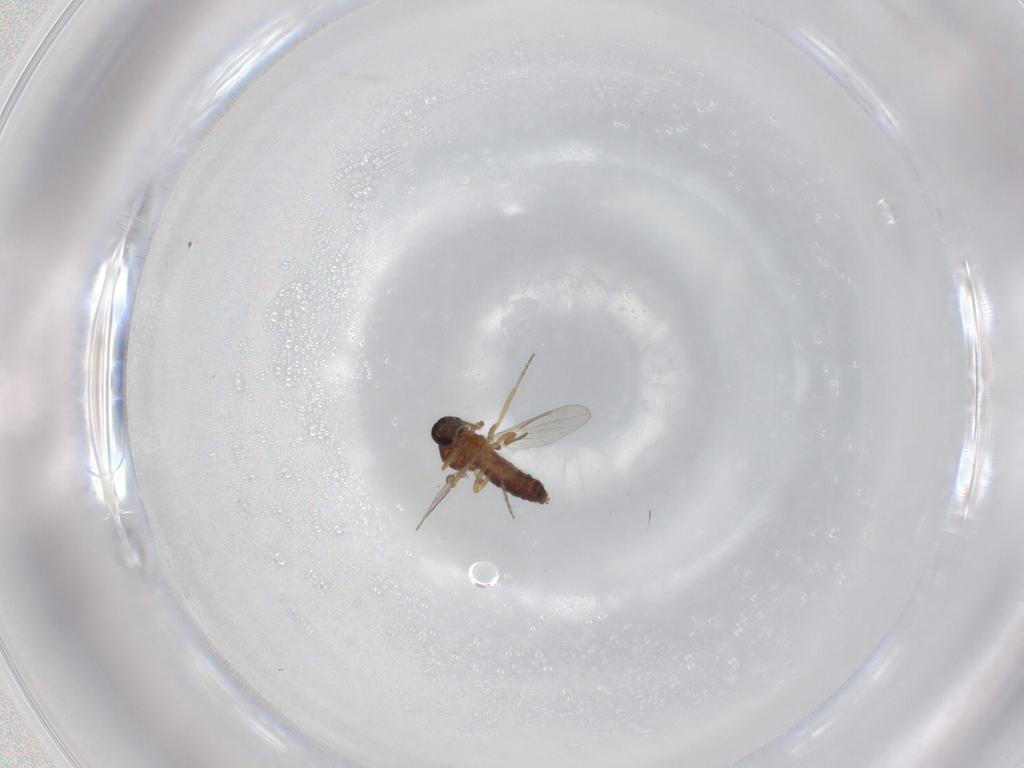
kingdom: Animalia
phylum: Arthropoda
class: Insecta
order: Diptera
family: Ceratopogonidae
